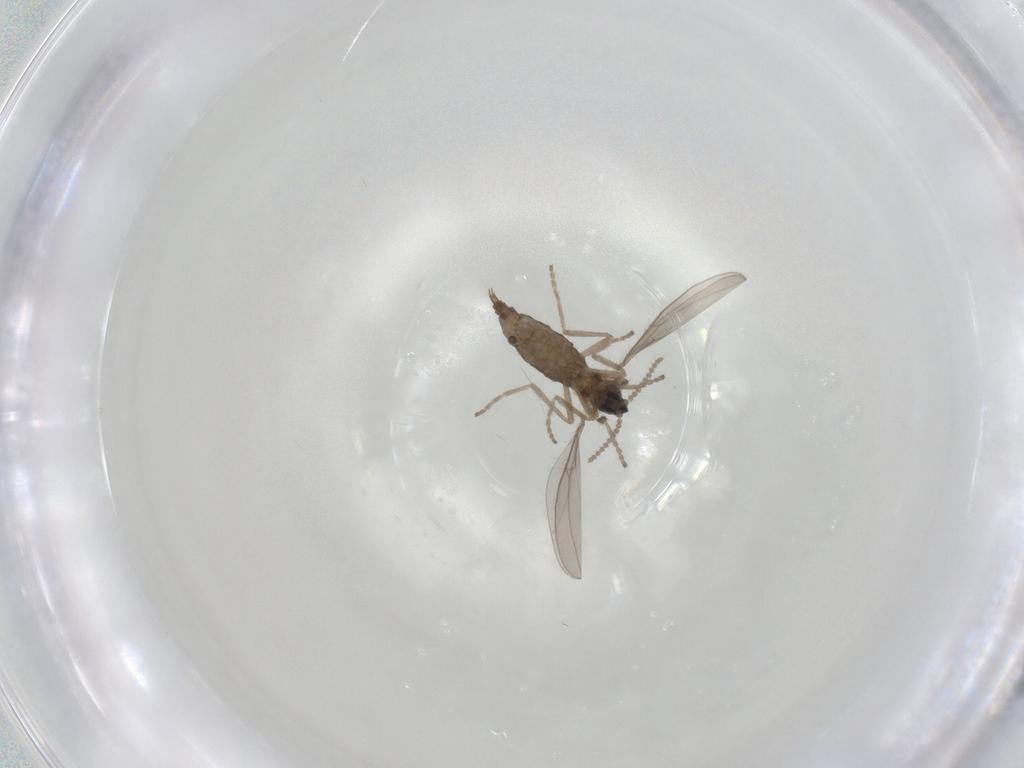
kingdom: Animalia
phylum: Arthropoda
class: Insecta
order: Diptera
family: Cecidomyiidae
